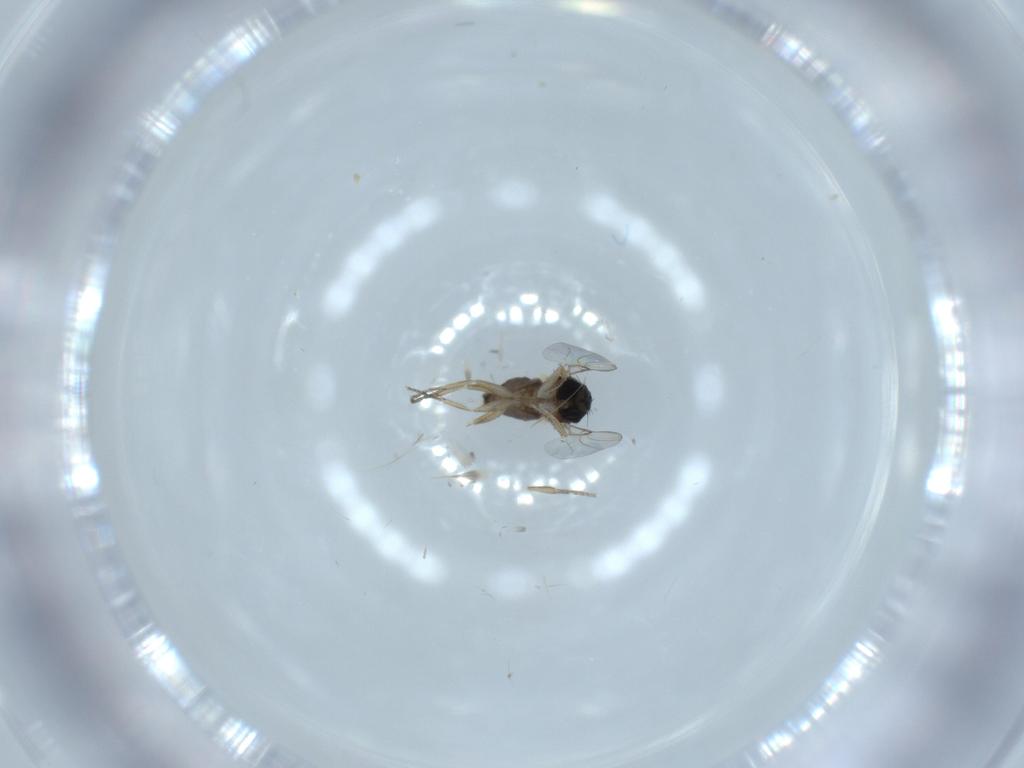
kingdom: Animalia
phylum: Arthropoda
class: Insecta
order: Diptera
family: Phoridae
